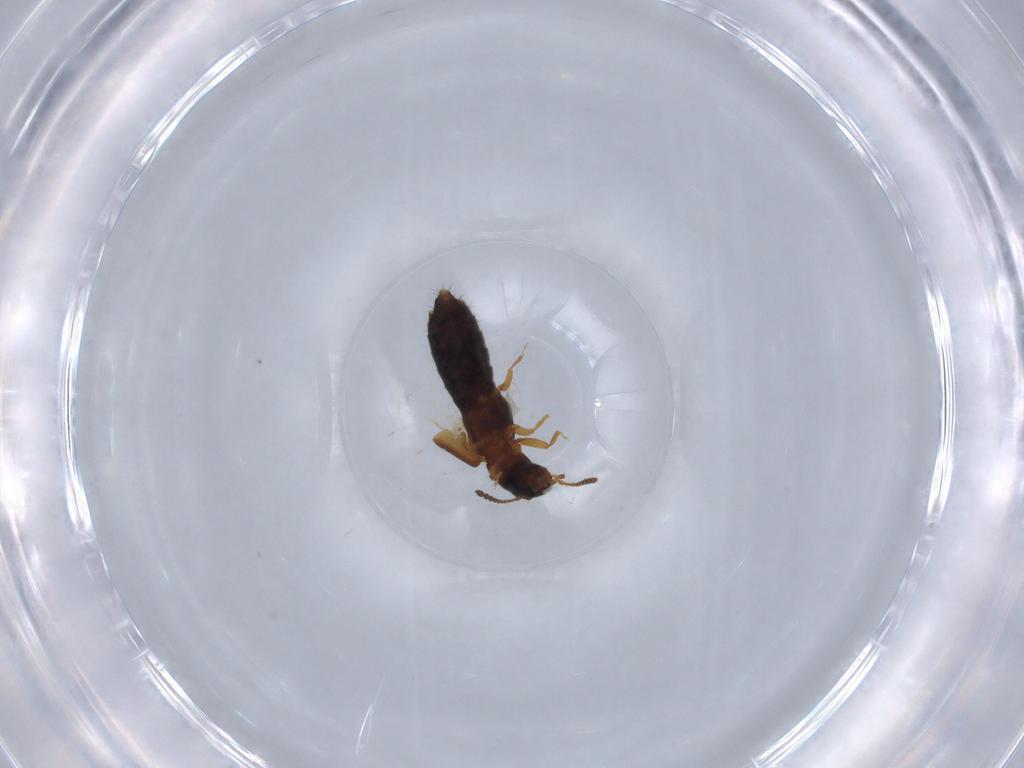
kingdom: Animalia
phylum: Arthropoda
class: Insecta
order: Coleoptera
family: Staphylinidae
